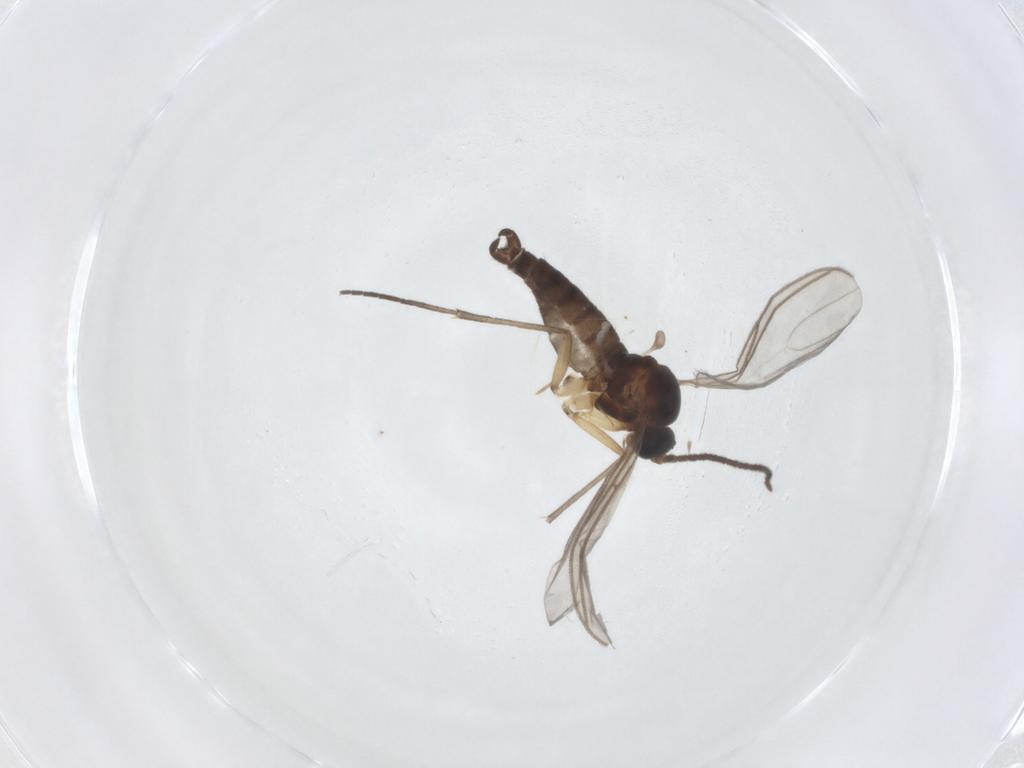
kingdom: Animalia
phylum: Arthropoda
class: Insecta
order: Diptera
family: Sciaridae
